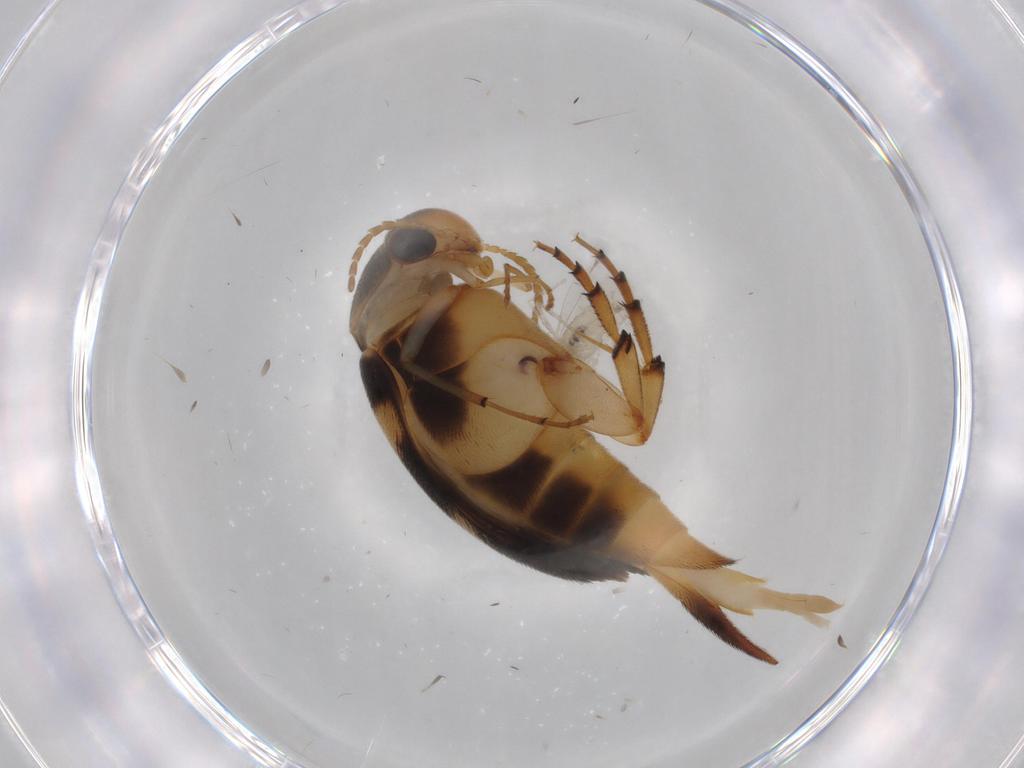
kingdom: Animalia
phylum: Arthropoda
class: Insecta
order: Coleoptera
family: Mordellidae
